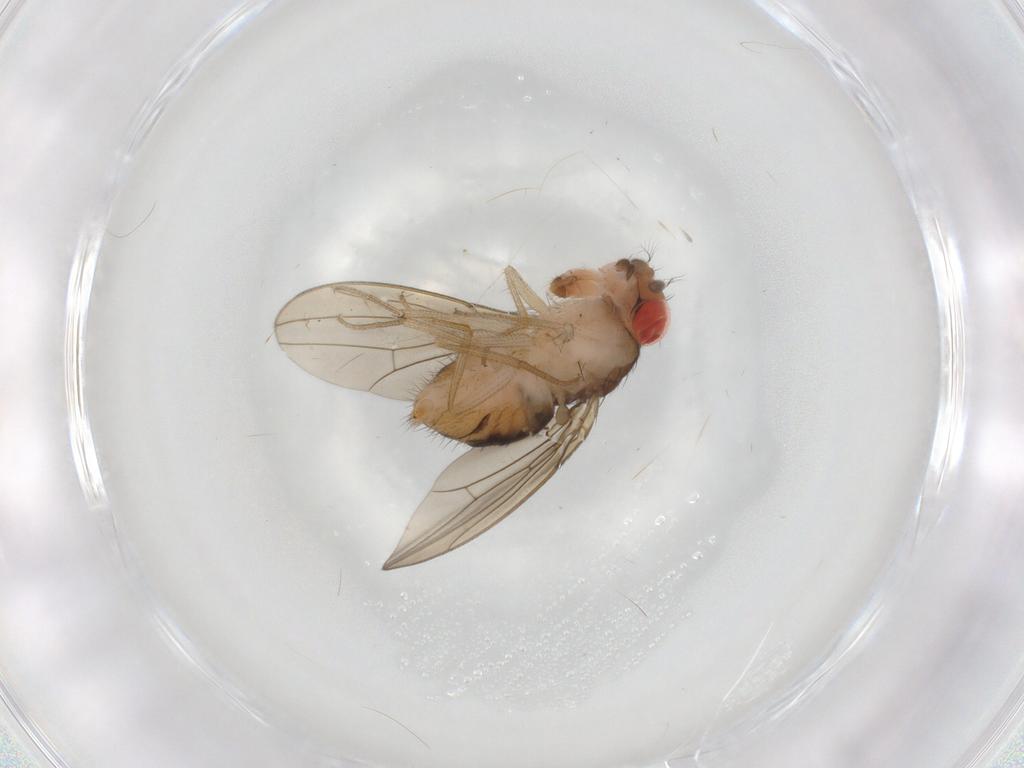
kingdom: Animalia
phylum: Arthropoda
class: Insecta
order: Diptera
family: Drosophilidae
